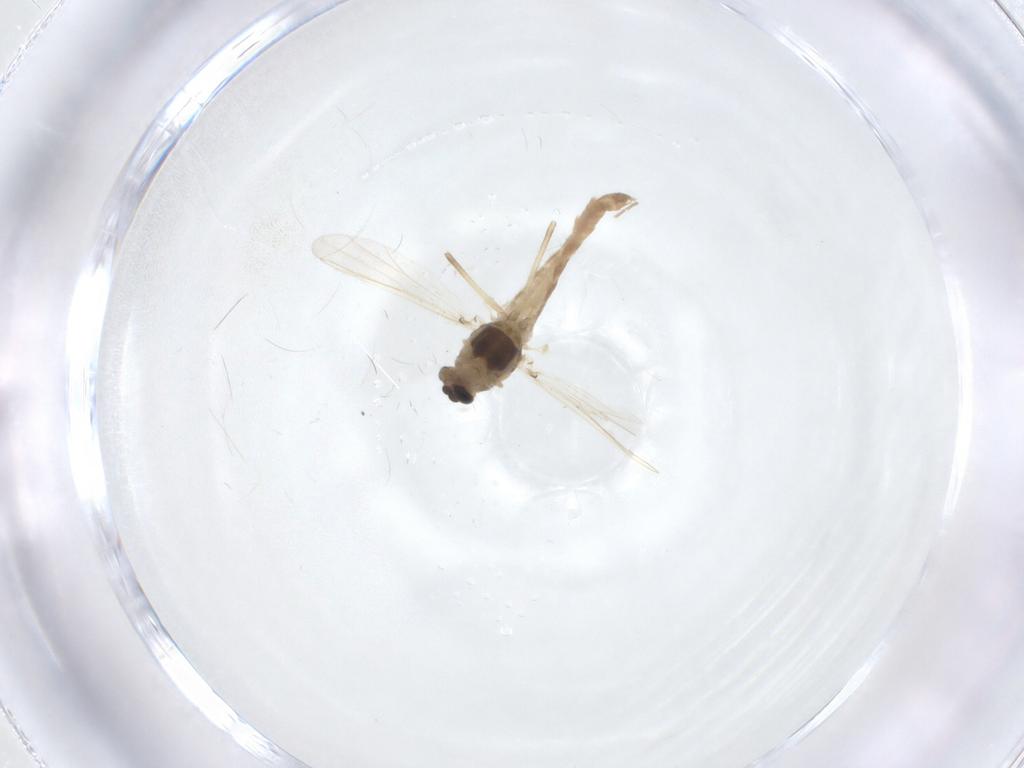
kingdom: Animalia
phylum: Arthropoda
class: Insecta
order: Diptera
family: Chironomidae
